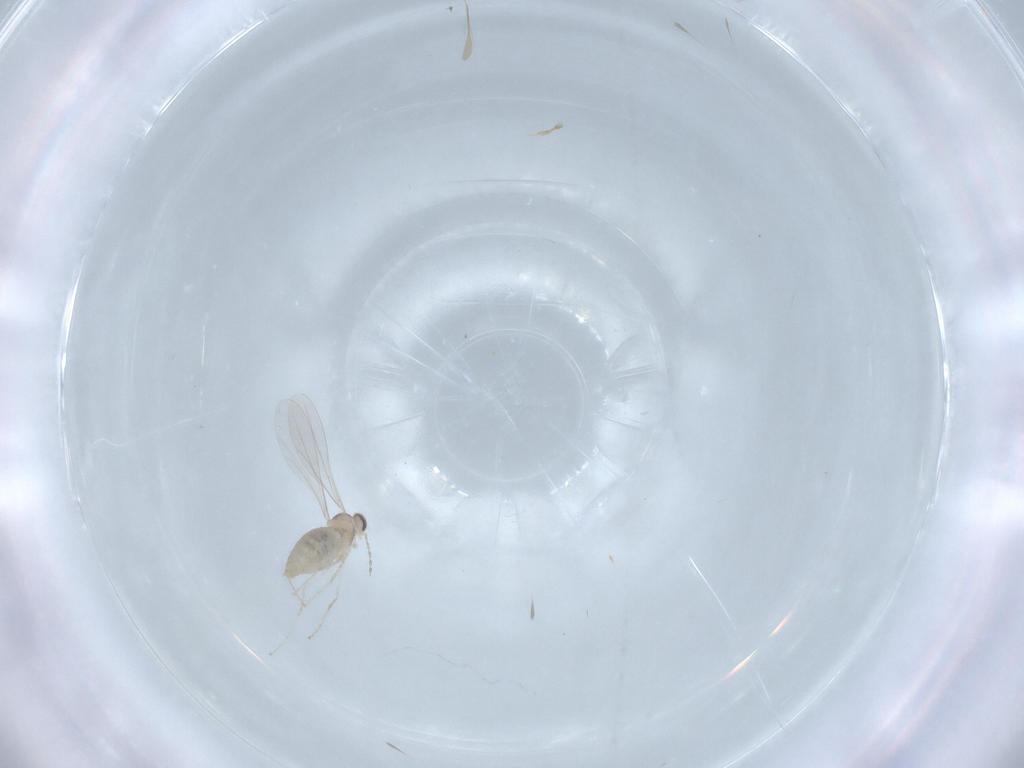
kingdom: Animalia
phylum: Arthropoda
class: Insecta
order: Diptera
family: Cecidomyiidae
